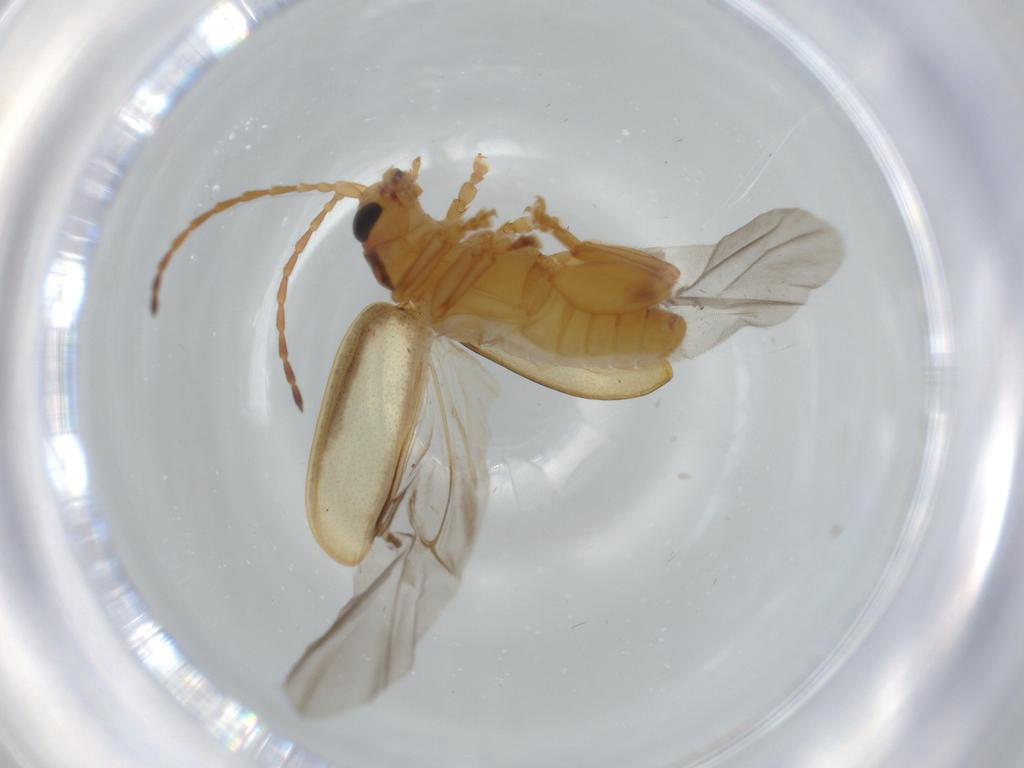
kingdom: Animalia
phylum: Arthropoda
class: Insecta
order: Coleoptera
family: Chrysomelidae
